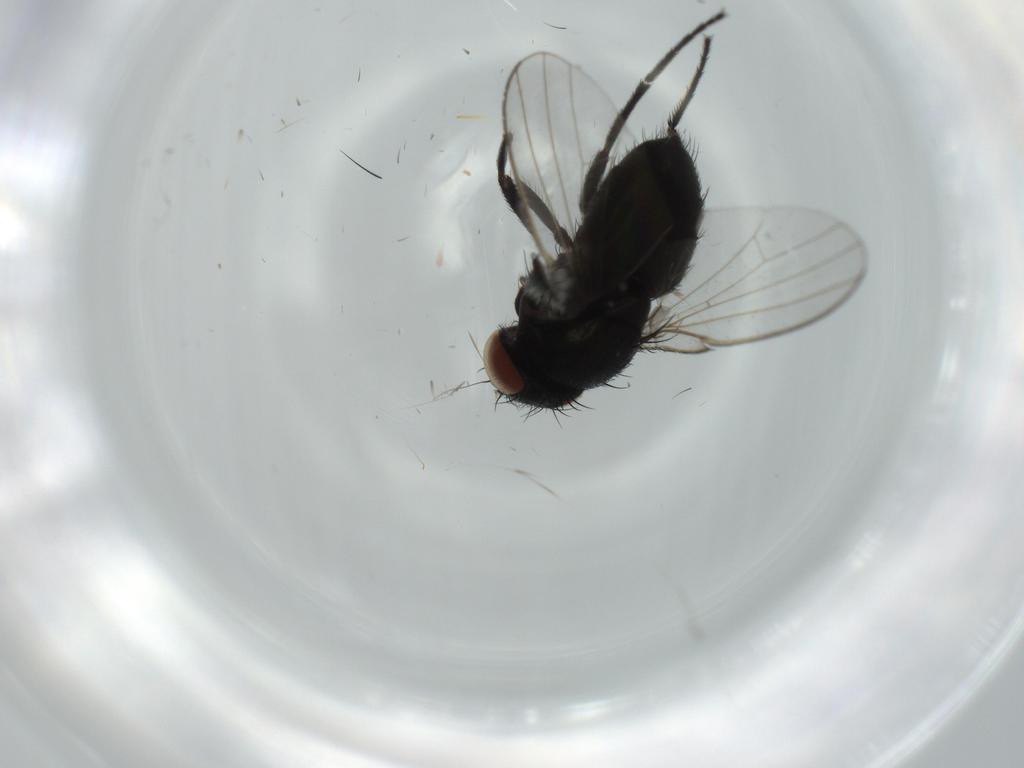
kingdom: Animalia
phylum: Arthropoda
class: Insecta
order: Diptera
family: Milichiidae
